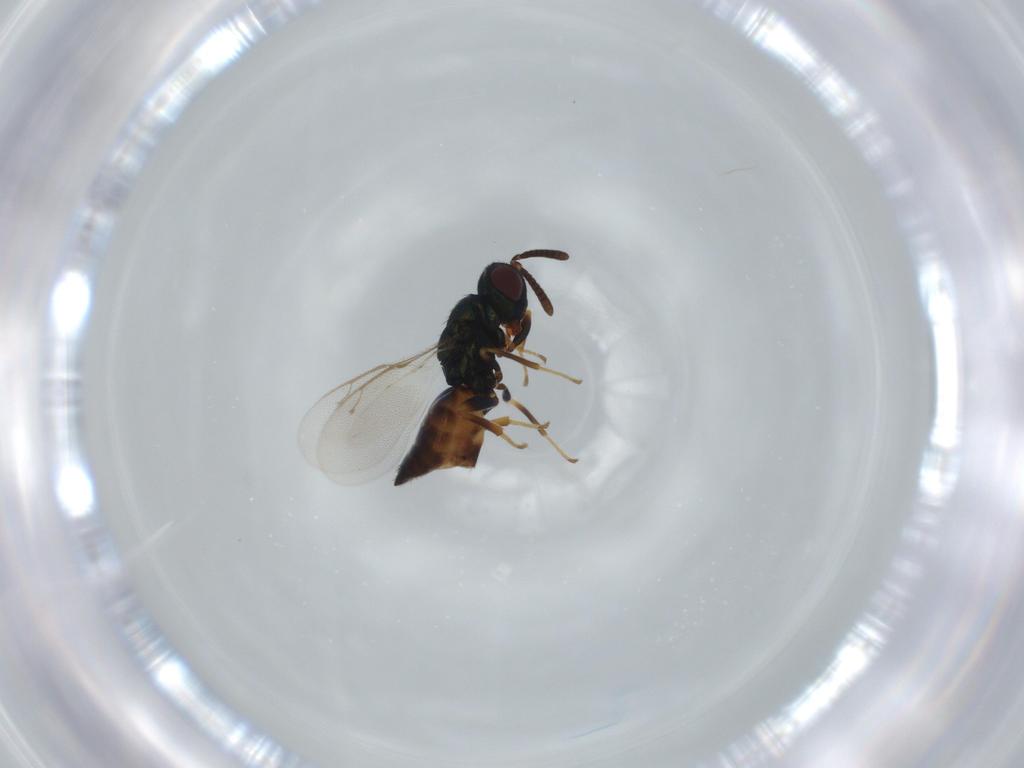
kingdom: Animalia
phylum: Arthropoda
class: Insecta
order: Hymenoptera
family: Pteromalidae
